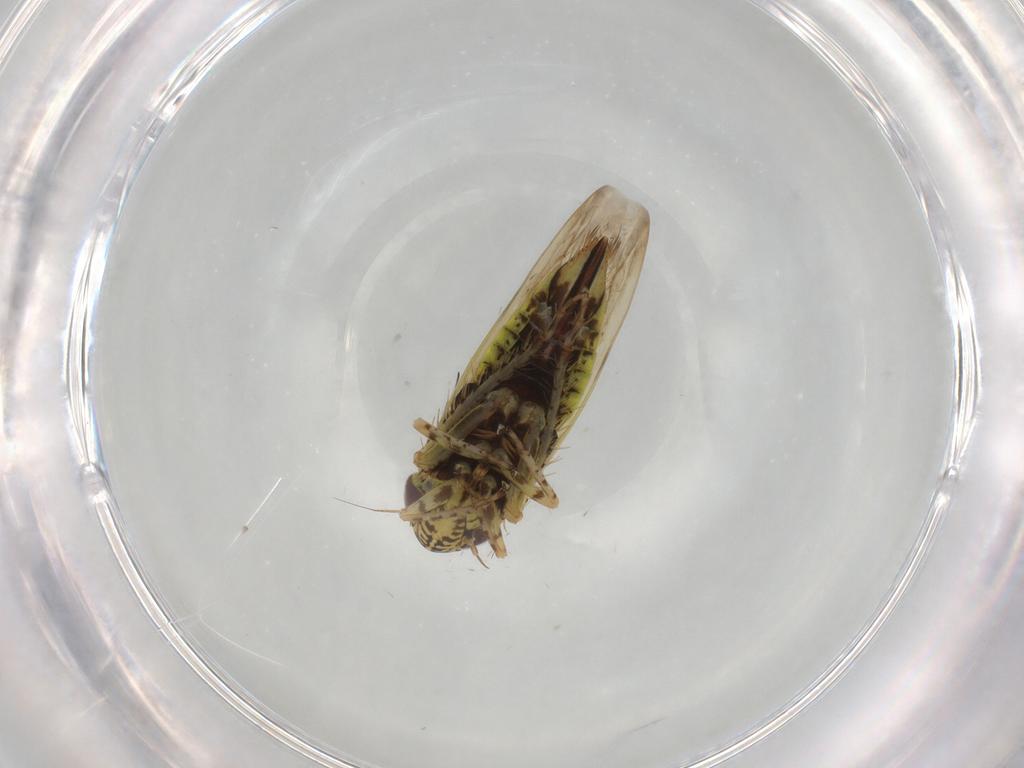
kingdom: Animalia
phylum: Arthropoda
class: Insecta
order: Hemiptera
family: Cicadellidae
